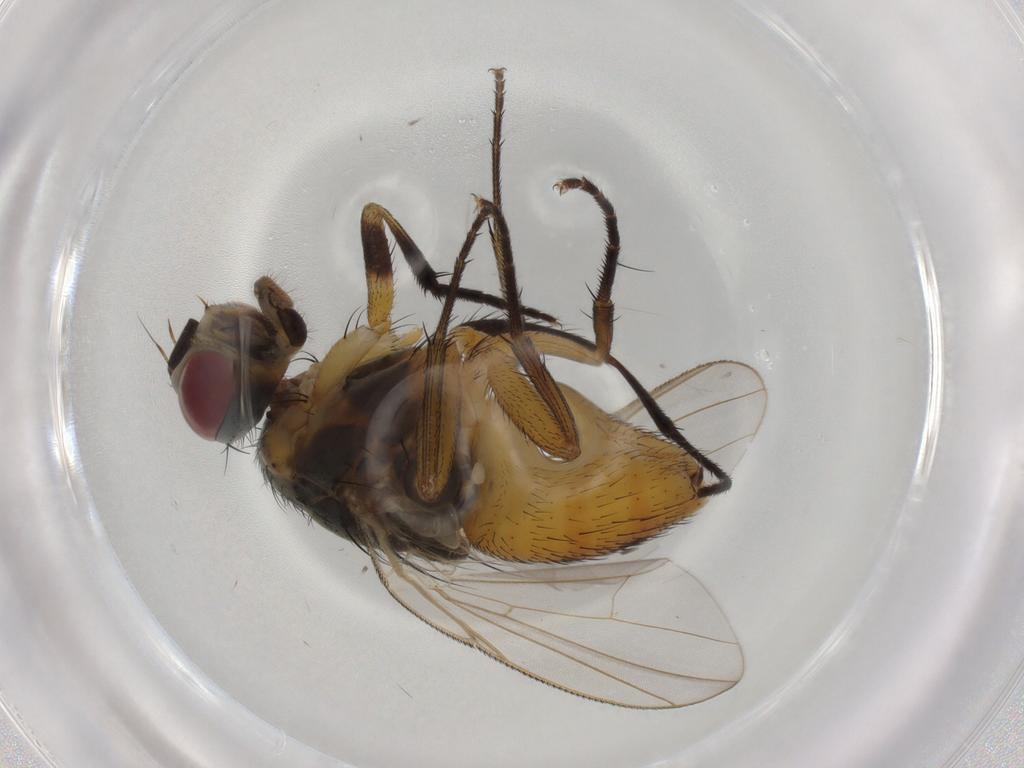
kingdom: Animalia
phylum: Arthropoda
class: Insecta
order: Diptera
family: Muscidae
